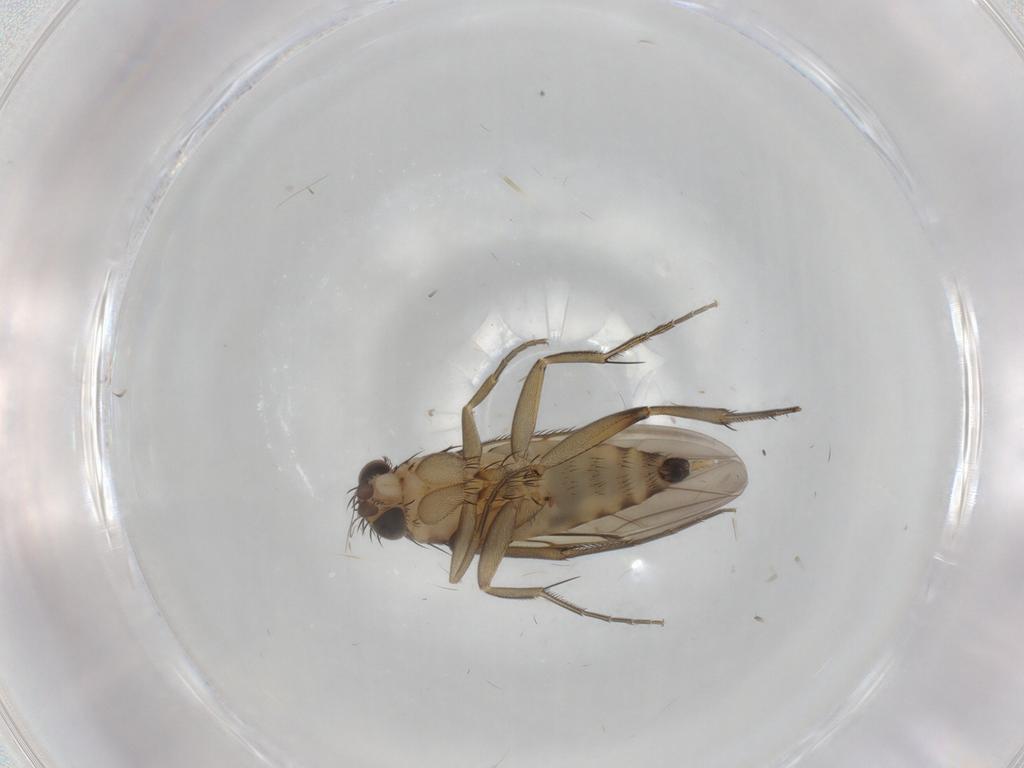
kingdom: Animalia
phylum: Arthropoda
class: Insecta
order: Diptera
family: Phoridae
